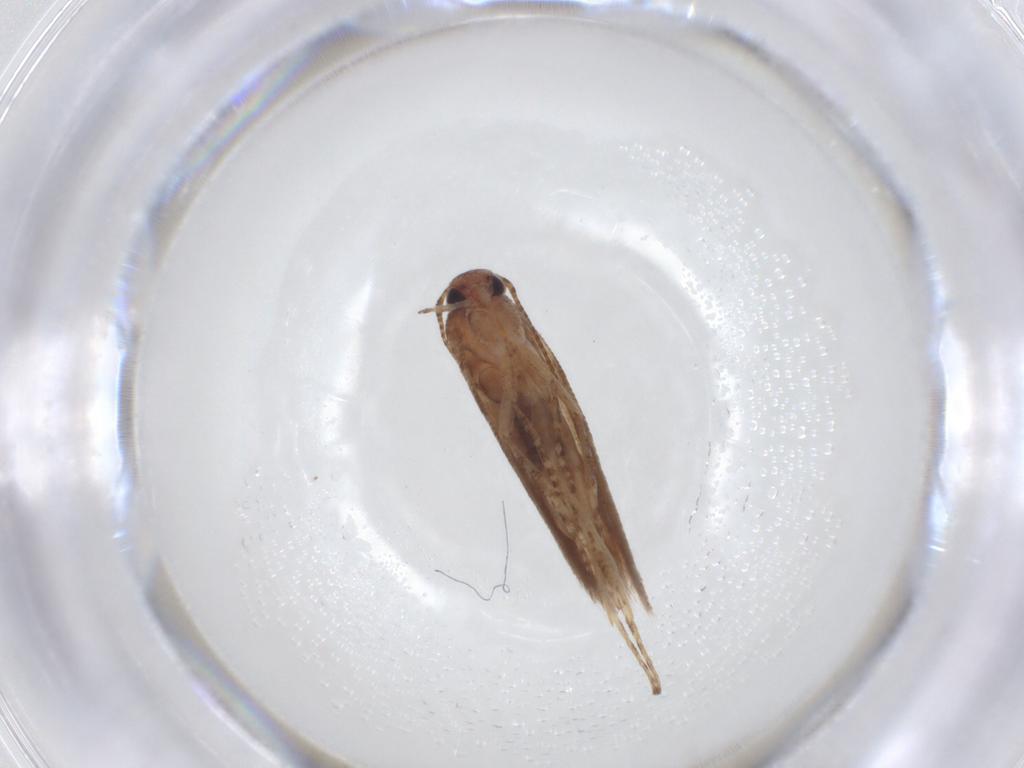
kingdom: Animalia
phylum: Arthropoda
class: Insecta
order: Lepidoptera
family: Gelechiidae
